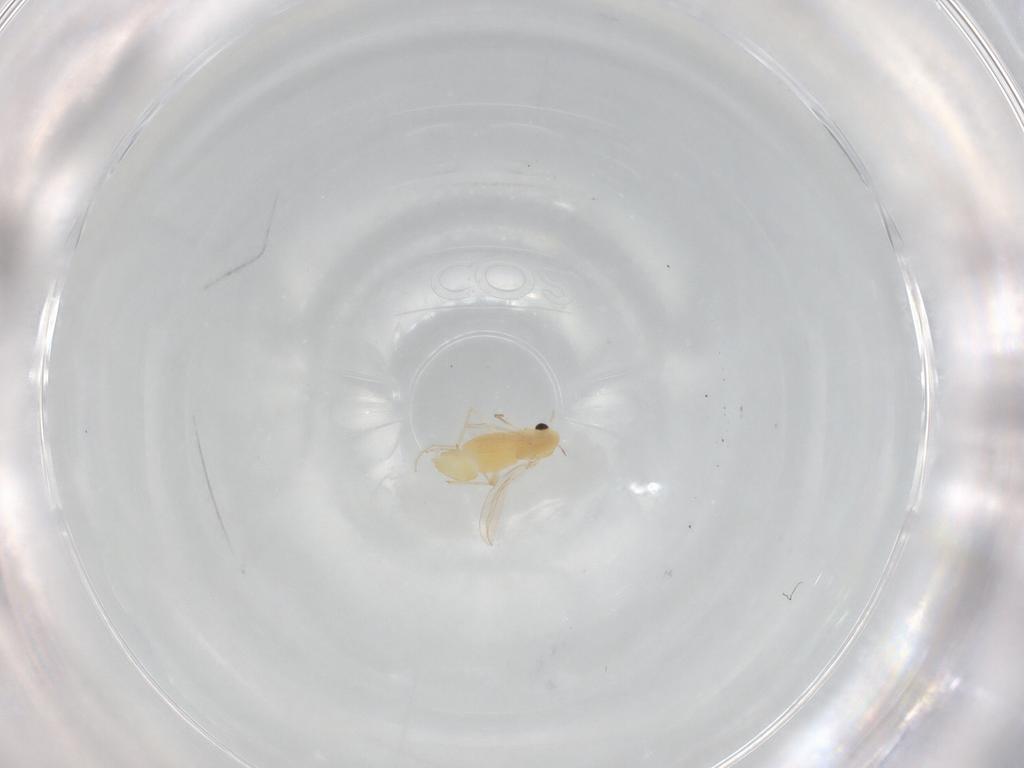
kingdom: Animalia
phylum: Arthropoda
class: Insecta
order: Diptera
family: Chironomidae
